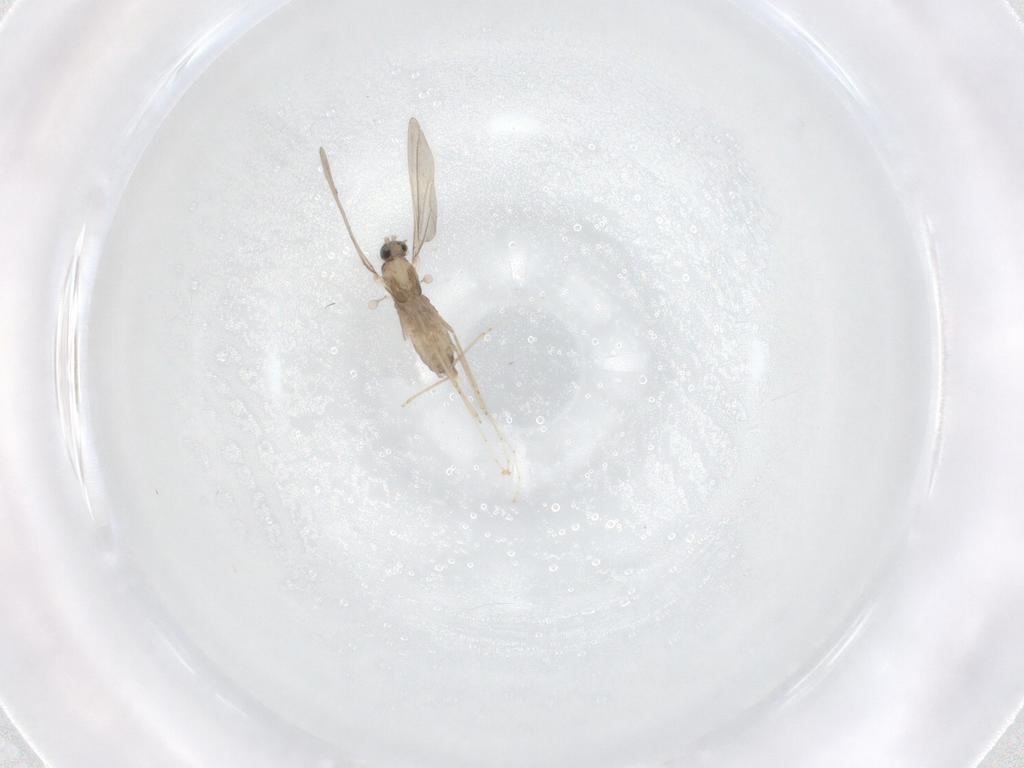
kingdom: Animalia
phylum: Arthropoda
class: Insecta
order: Diptera
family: Cecidomyiidae
